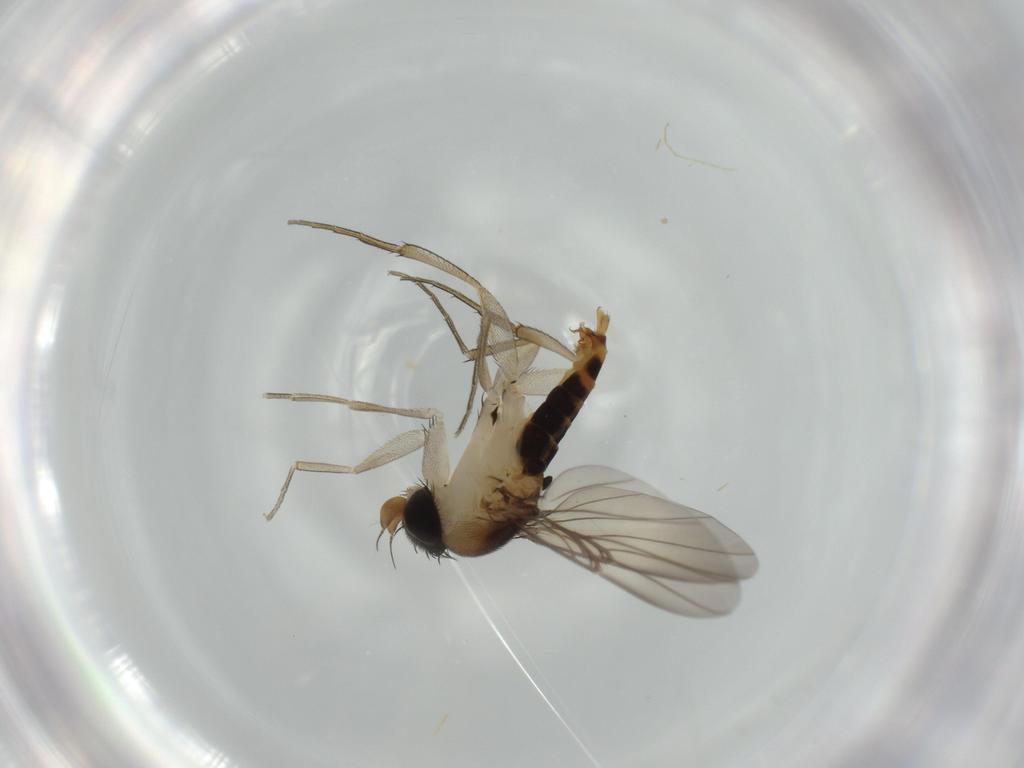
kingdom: Animalia
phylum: Arthropoda
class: Insecta
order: Diptera
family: Phoridae
